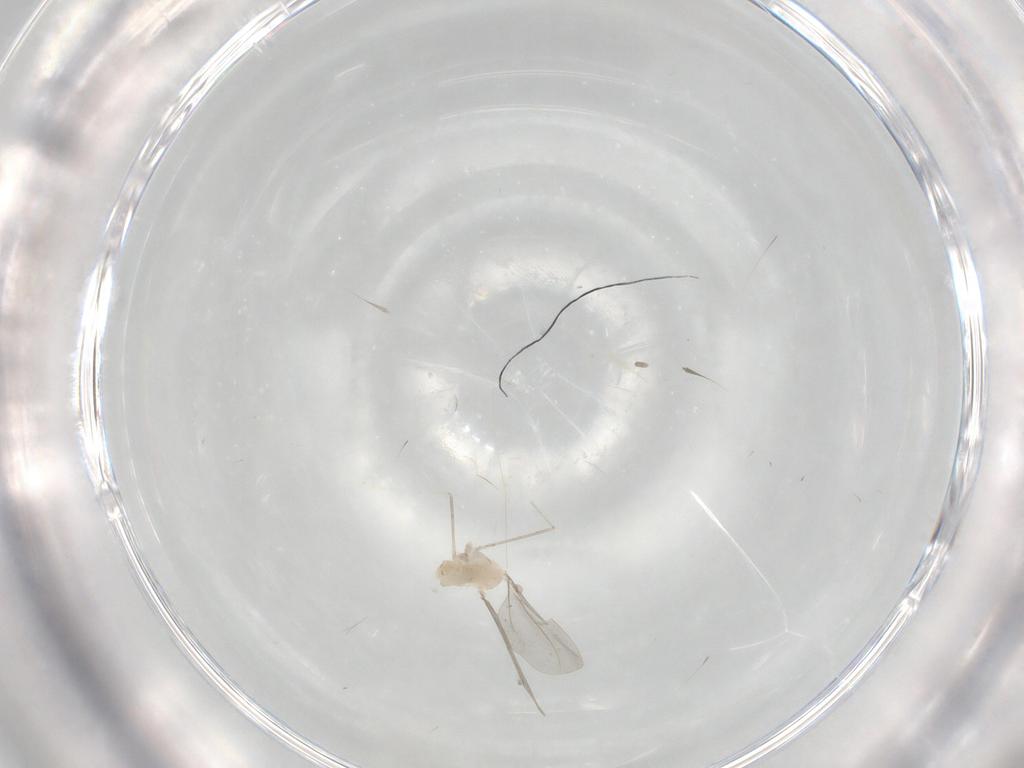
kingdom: Animalia
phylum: Arthropoda
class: Insecta
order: Diptera
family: Cecidomyiidae
